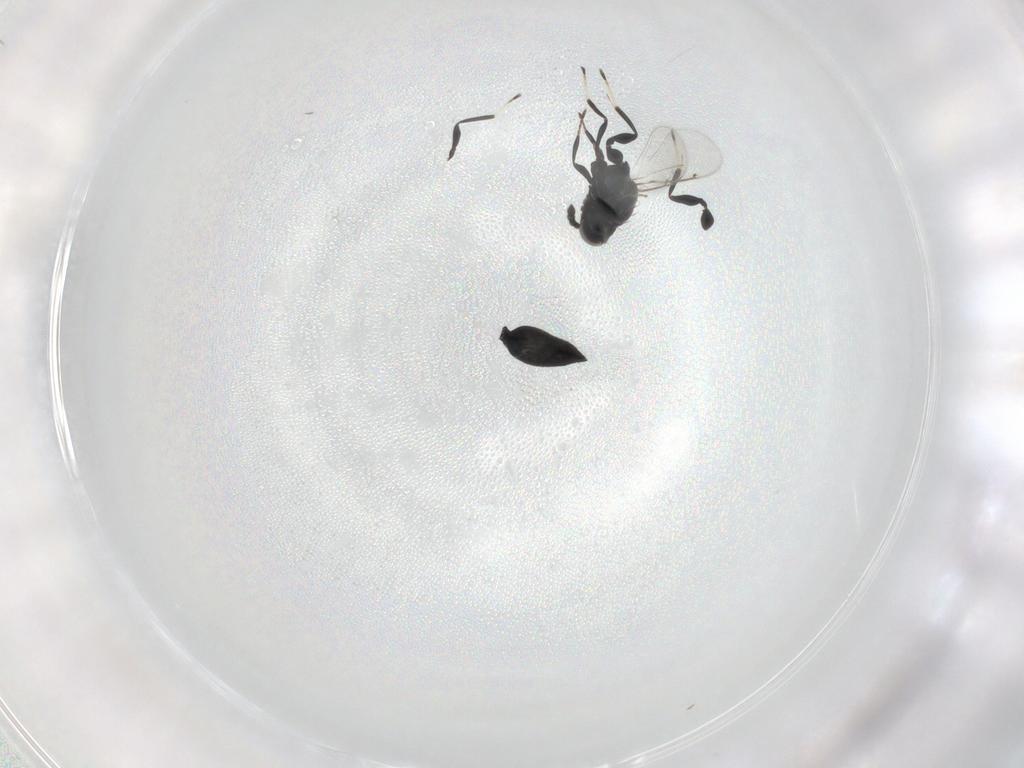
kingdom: Animalia
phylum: Arthropoda
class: Insecta
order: Hymenoptera
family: Eulophidae
